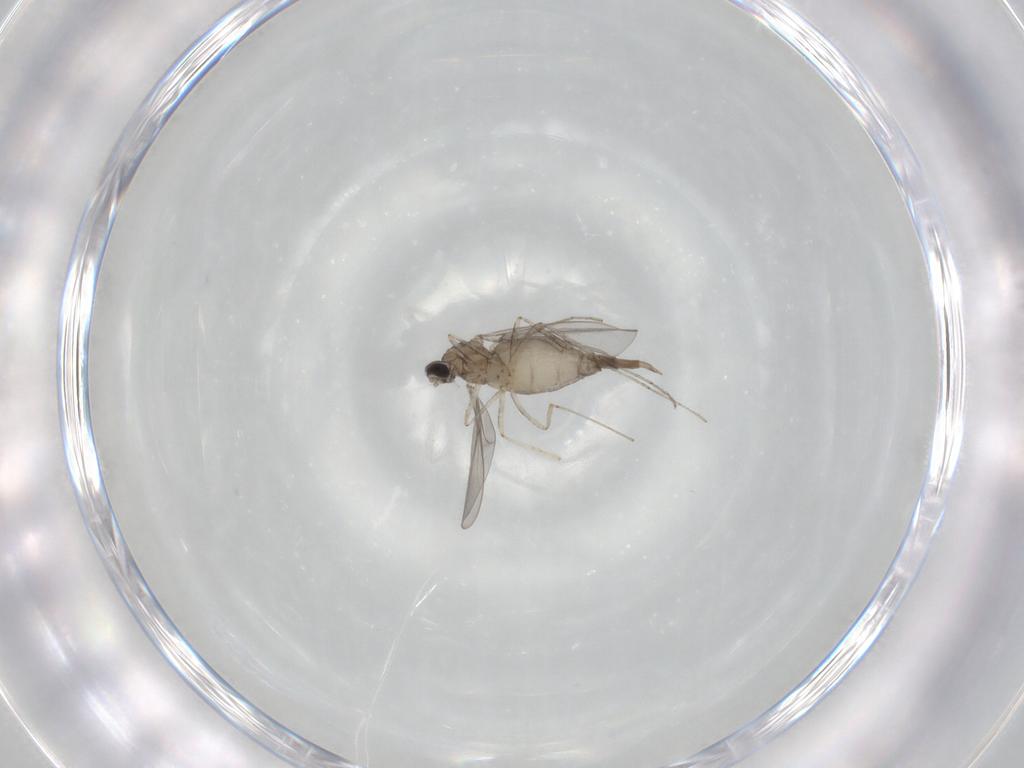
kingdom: Animalia
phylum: Arthropoda
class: Insecta
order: Diptera
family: Cecidomyiidae
